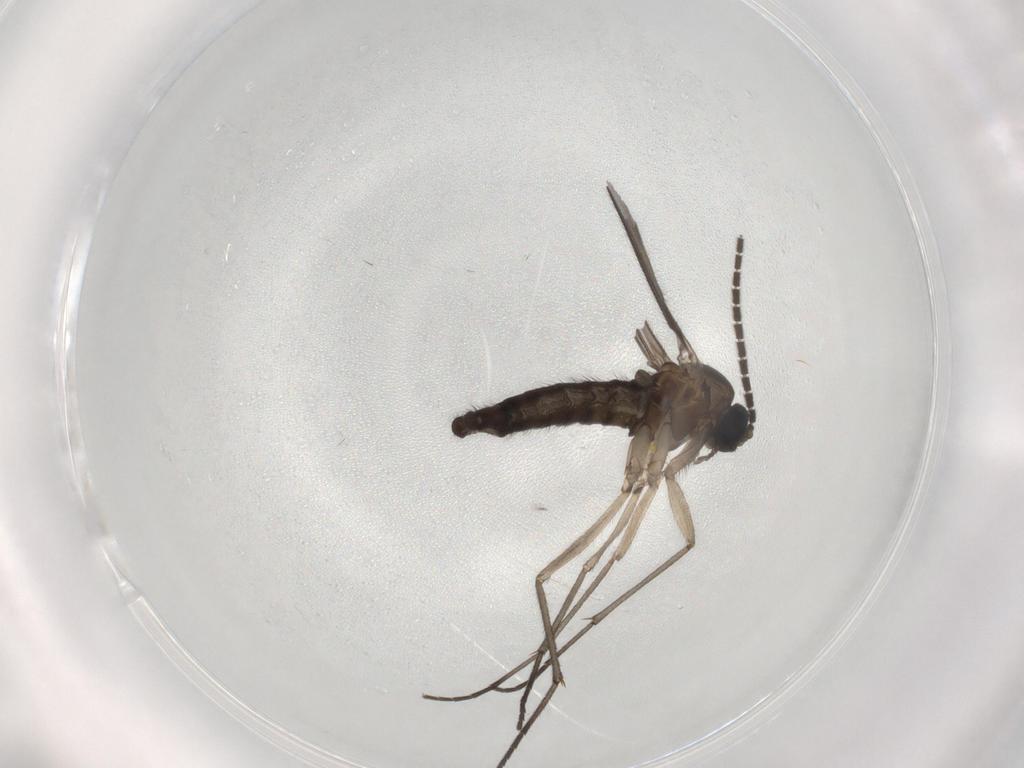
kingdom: Animalia
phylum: Arthropoda
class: Insecta
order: Diptera
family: Sciaridae
